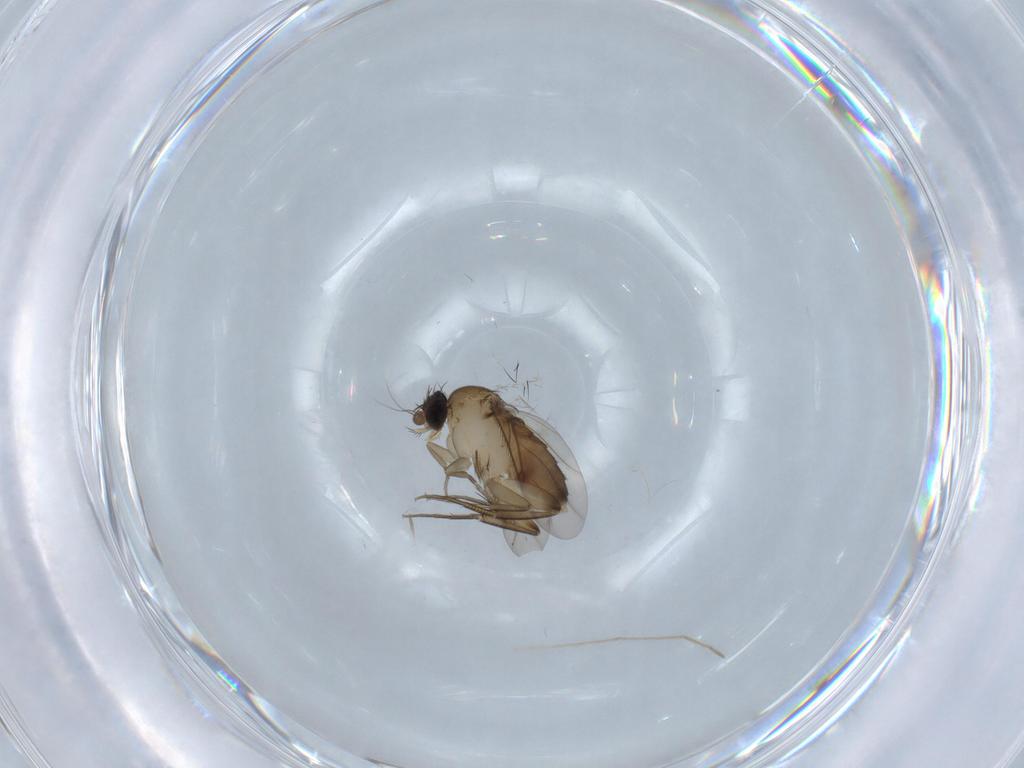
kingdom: Animalia
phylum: Arthropoda
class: Insecta
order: Diptera
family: Phoridae
